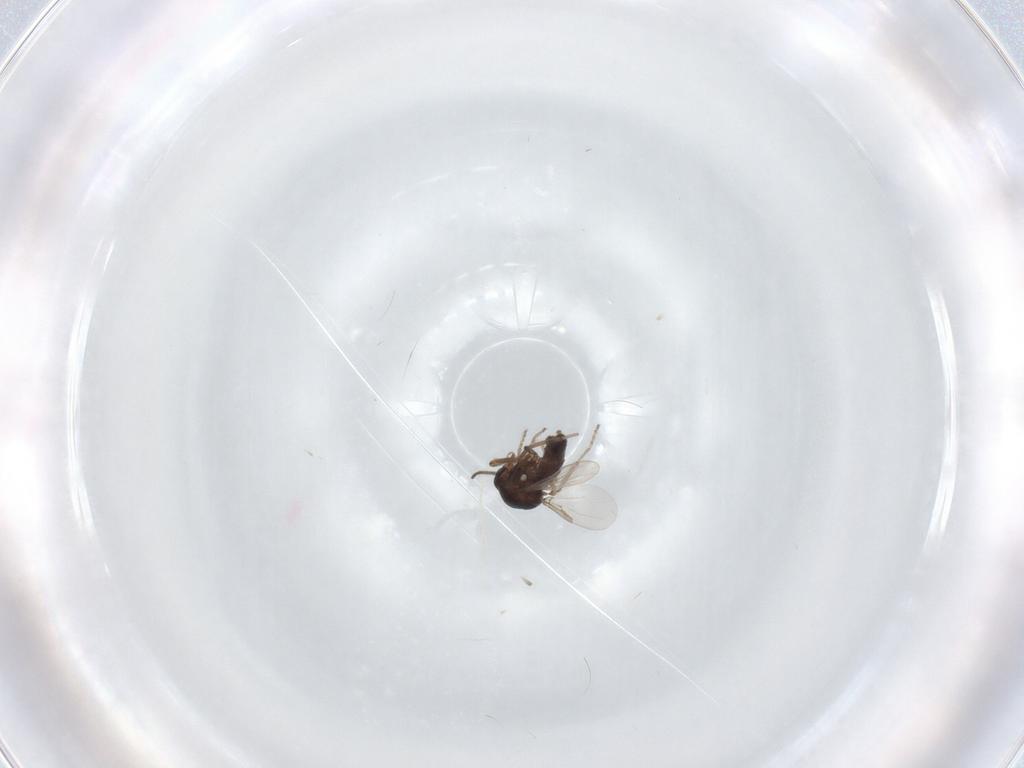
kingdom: Animalia
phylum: Arthropoda
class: Insecta
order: Diptera
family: Ceratopogonidae
